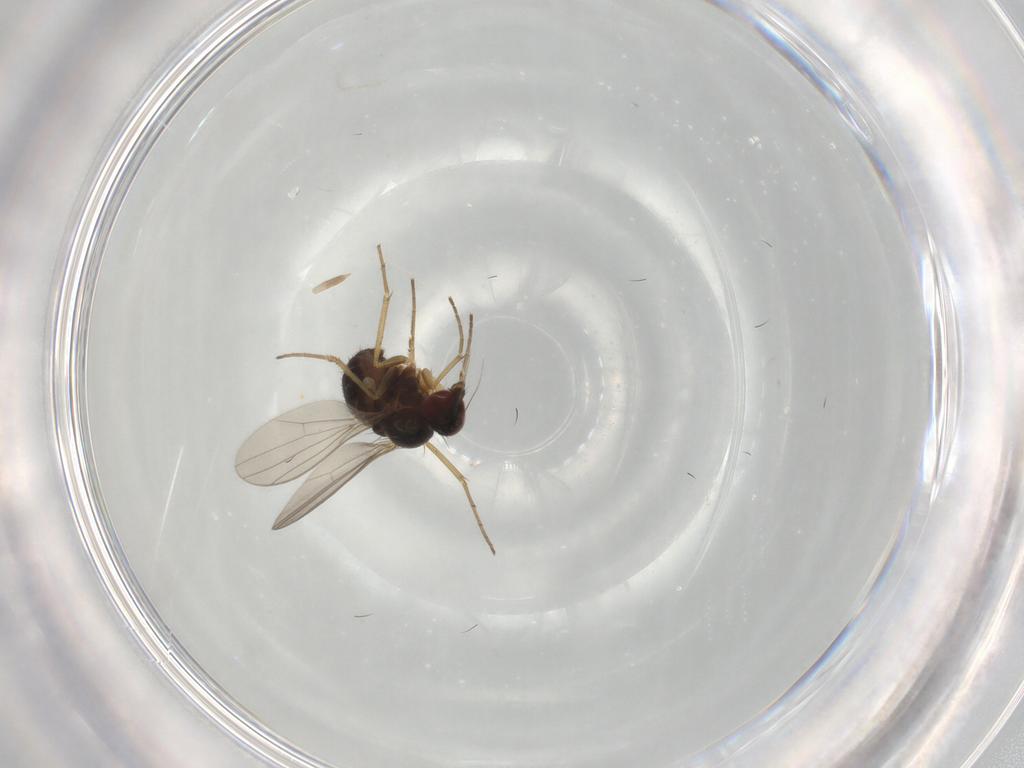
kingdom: Animalia
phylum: Arthropoda
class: Insecta
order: Diptera
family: Dolichopodidae
